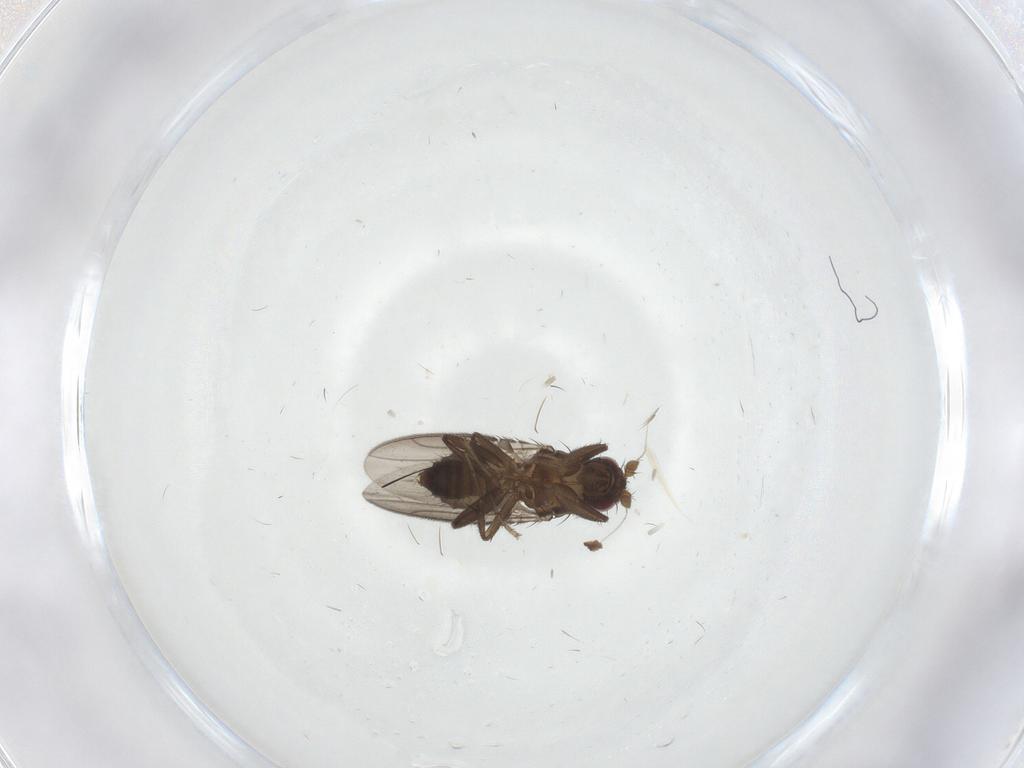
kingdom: Animalia
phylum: Arthropoda
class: Insecta
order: Diptera
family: Sphaeroceridae
